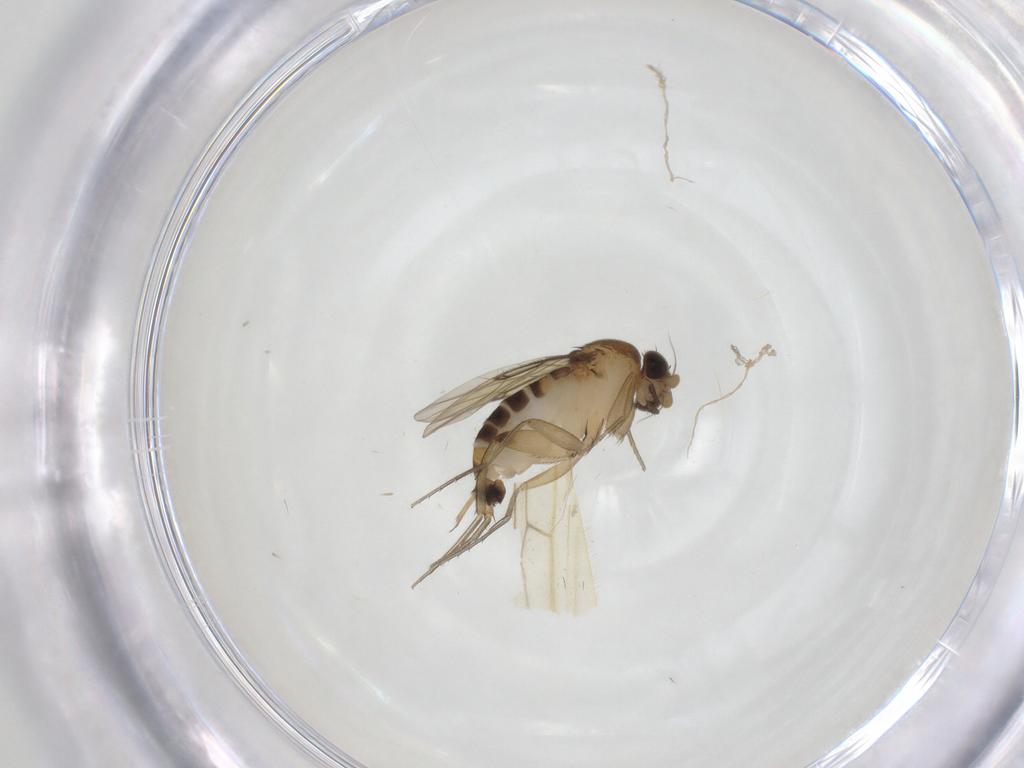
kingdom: Animalia
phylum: Arthropoda
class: Insecta
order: Diptera
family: Phoridae
